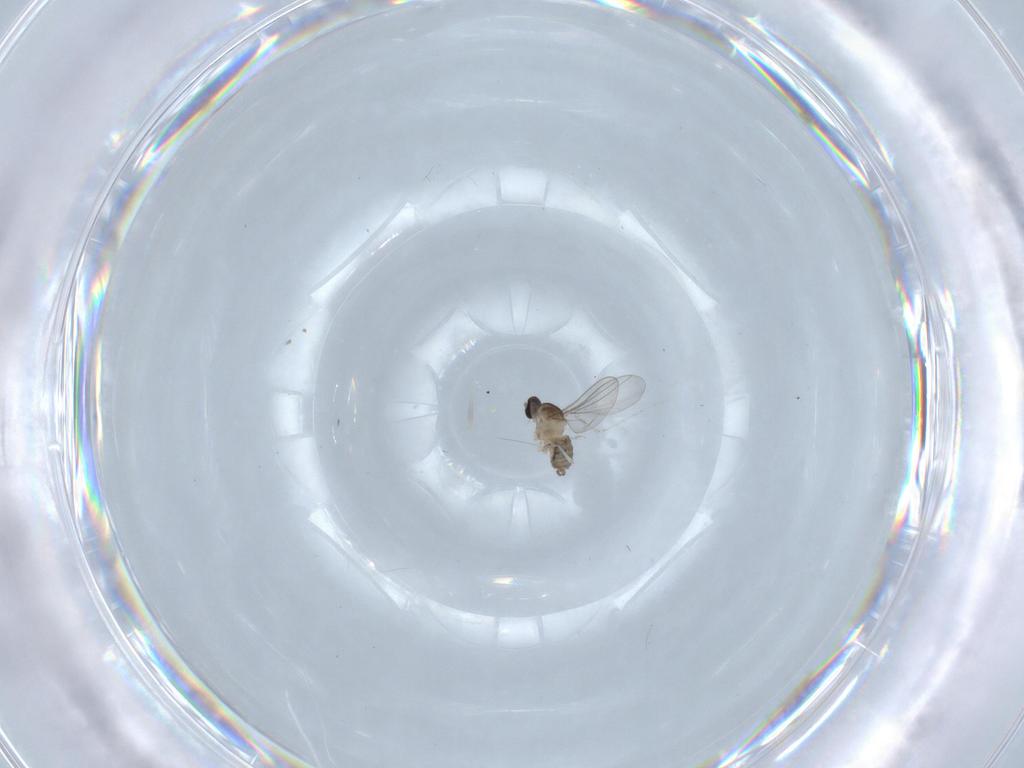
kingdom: Animalia
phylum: Arthropoda
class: Insecta
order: Diptera
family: Cecidomyiidae
